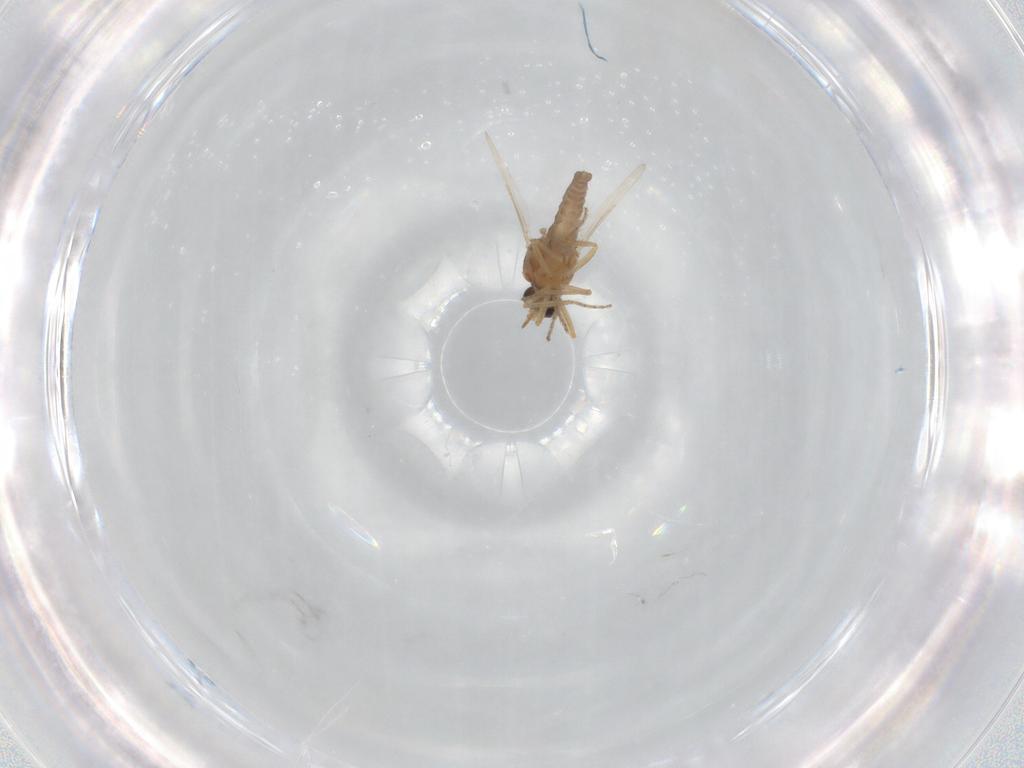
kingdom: Animalia
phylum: Arthropoda
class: Insecta
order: Diptera
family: Ceratopogonidae
